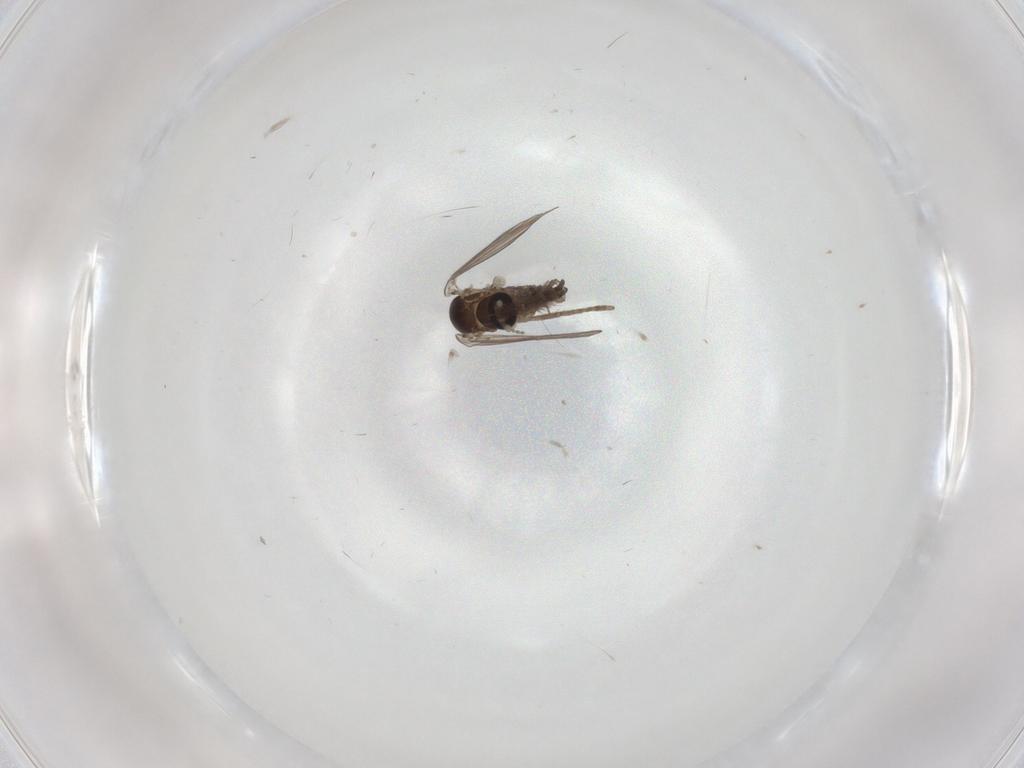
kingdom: Animalia
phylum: Arthropoda
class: Insecta
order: Diptera
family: Psychodidae
